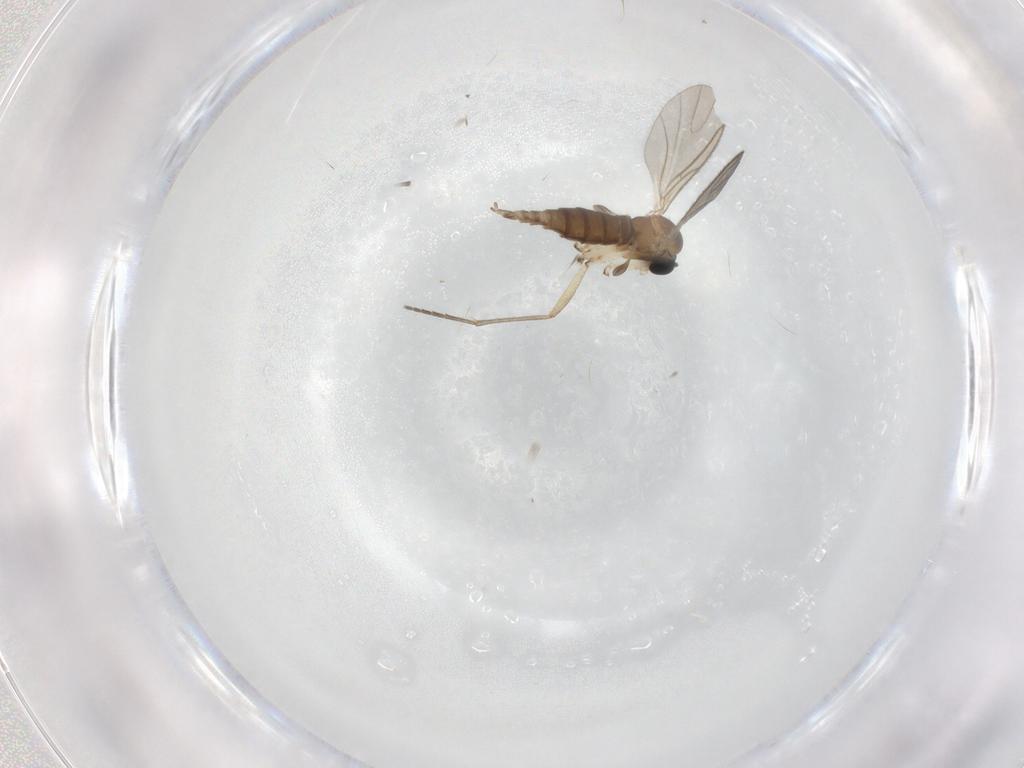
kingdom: Animalia
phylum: Arthropoda
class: Insecta
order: Diptera
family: Sciaridae
